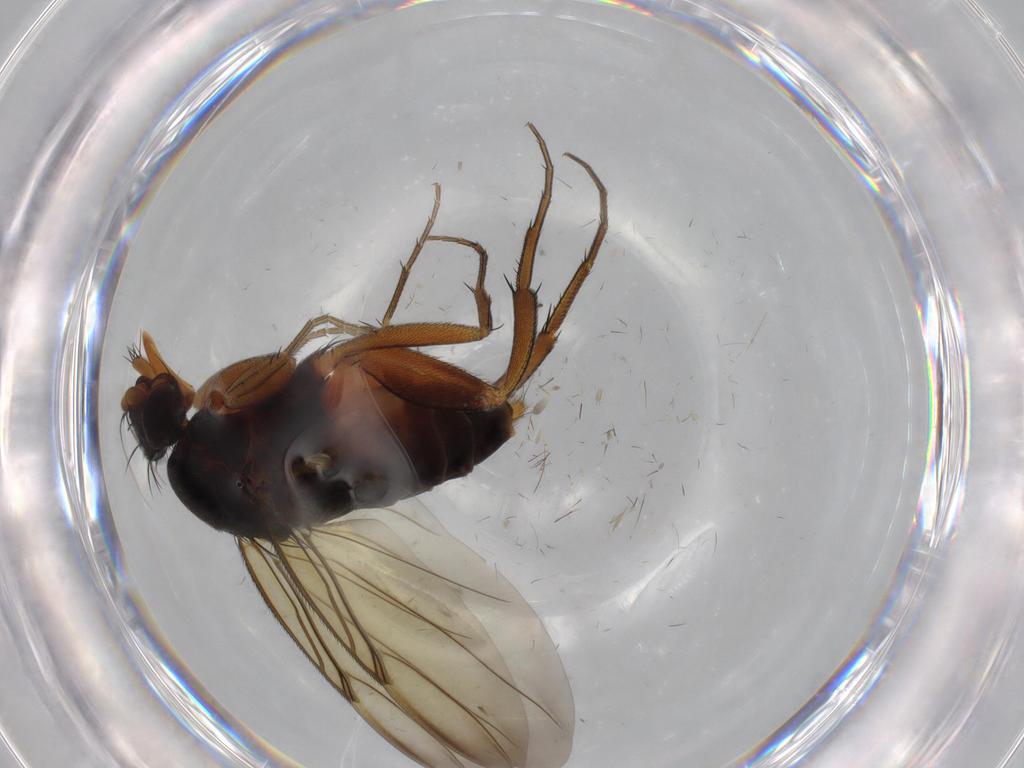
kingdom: Animalia
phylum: Arthropoda
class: Insecta
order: Diptera
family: Phoridae
